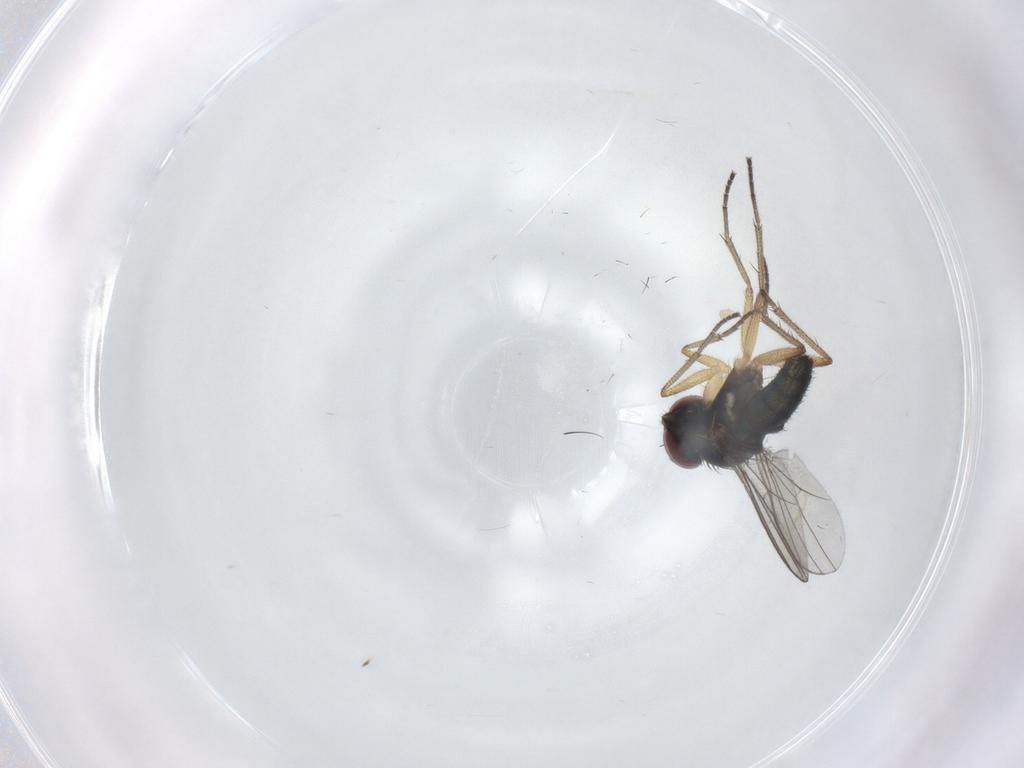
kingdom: Animalia
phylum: Arthropoda
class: Insecta
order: Diptera
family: Dolichopodidae
